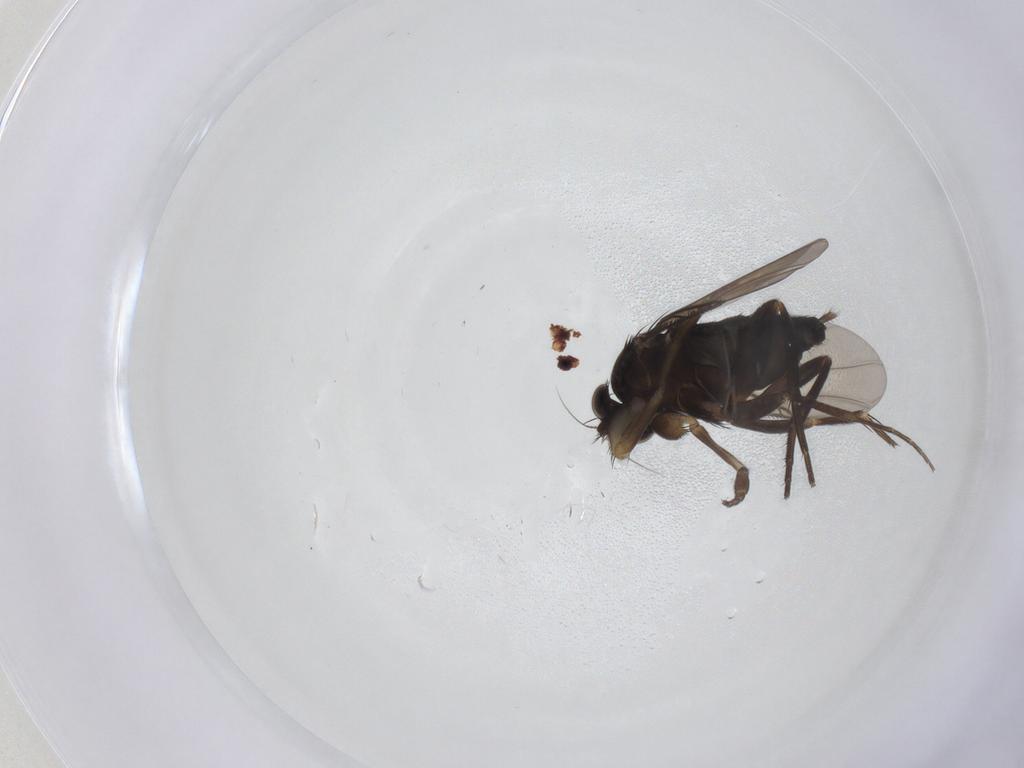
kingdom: Animalia
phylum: Arthropoda
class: Insecta
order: Diptera
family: Phoridae
